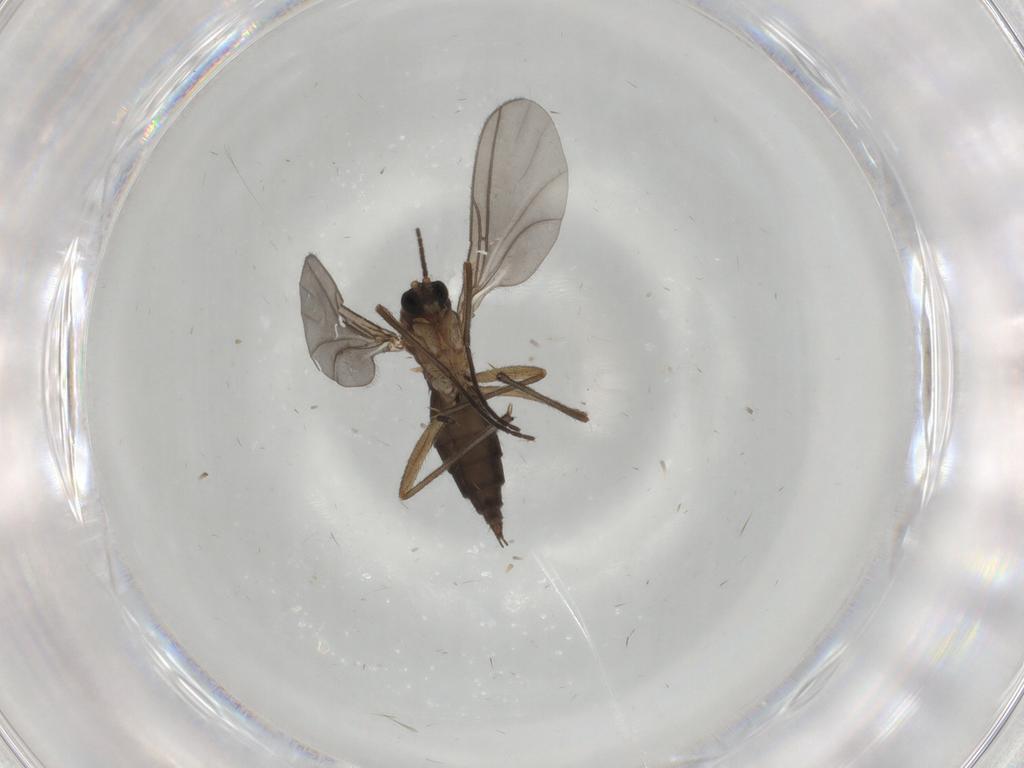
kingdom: Animalia
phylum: Arthropoda
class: Insecta
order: Diptera
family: Sciaridae
